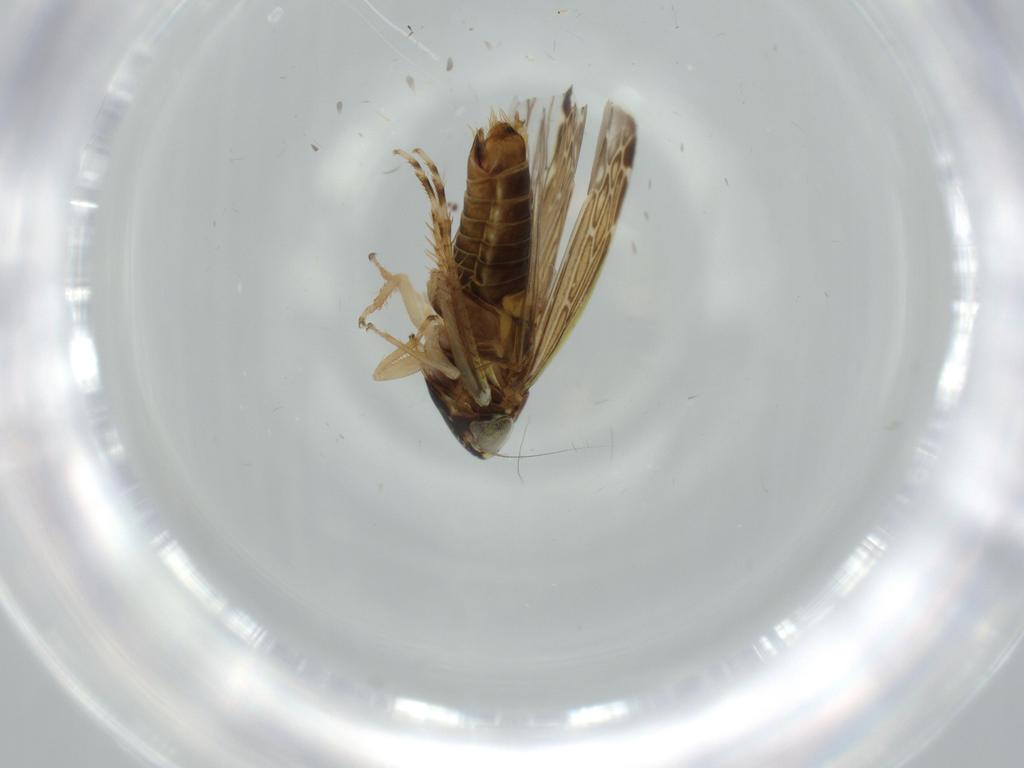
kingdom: Animalia
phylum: Arthropoda
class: Insecta
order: Hemiptera
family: Cicadellidae
